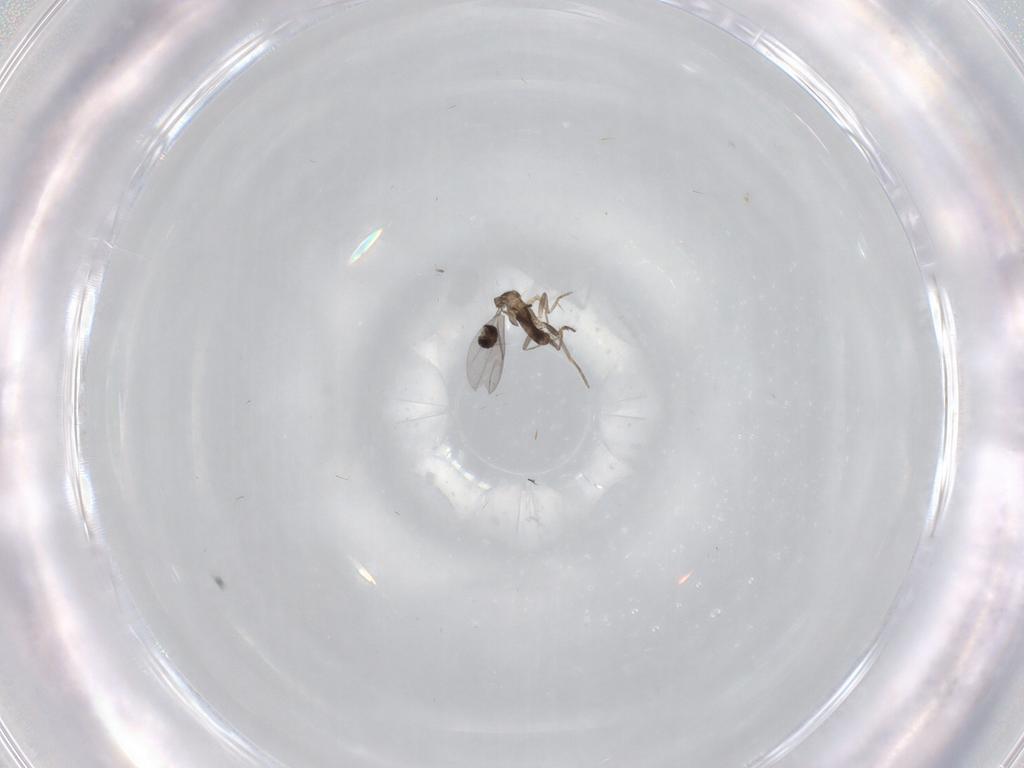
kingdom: Animalia
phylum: Arthropoda
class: Insecta
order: Diptera
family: Phoridae
